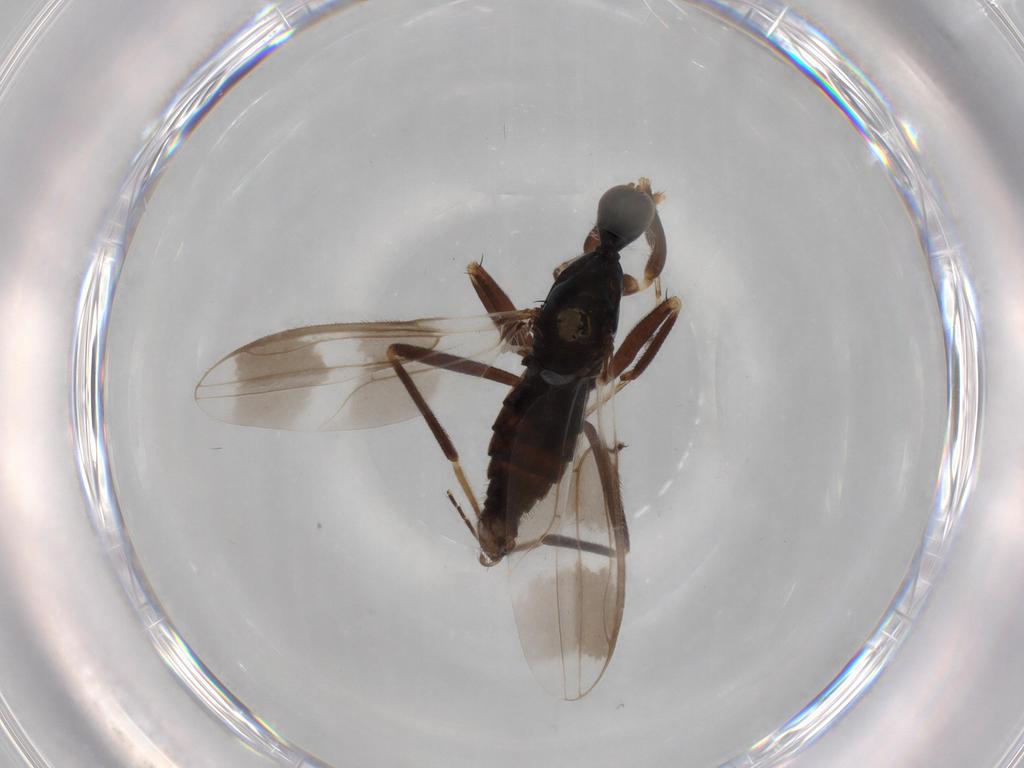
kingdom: Animalia
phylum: Arthropoda
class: Insecta
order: Diptera
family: Hybotidae
